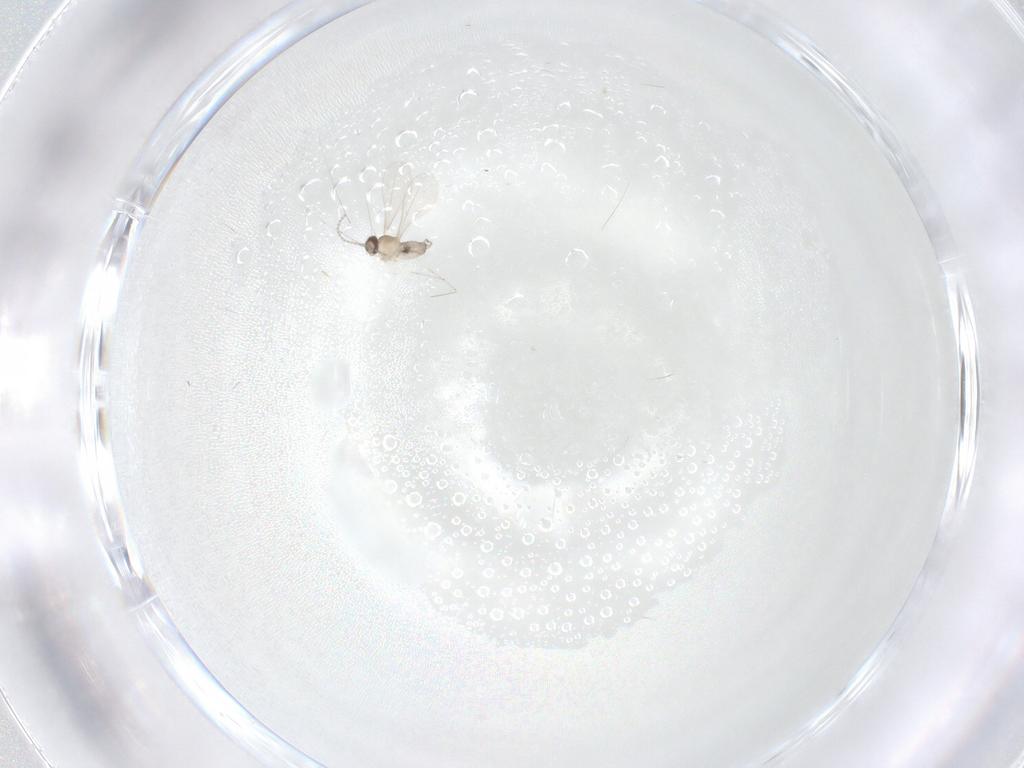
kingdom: Animalia
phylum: Arthropoda
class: Insecta
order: Diptera
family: Cecidomyiidae
